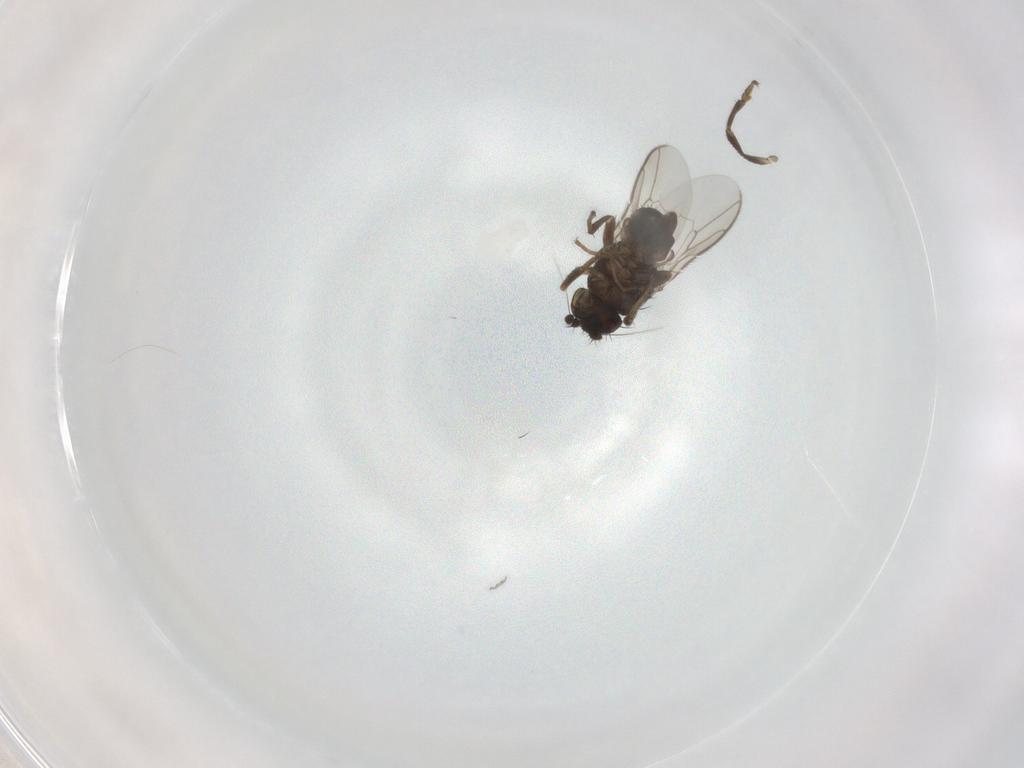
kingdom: Animalia
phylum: Arthropoda
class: Insecta
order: Diptera
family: Sphaeroceridae
